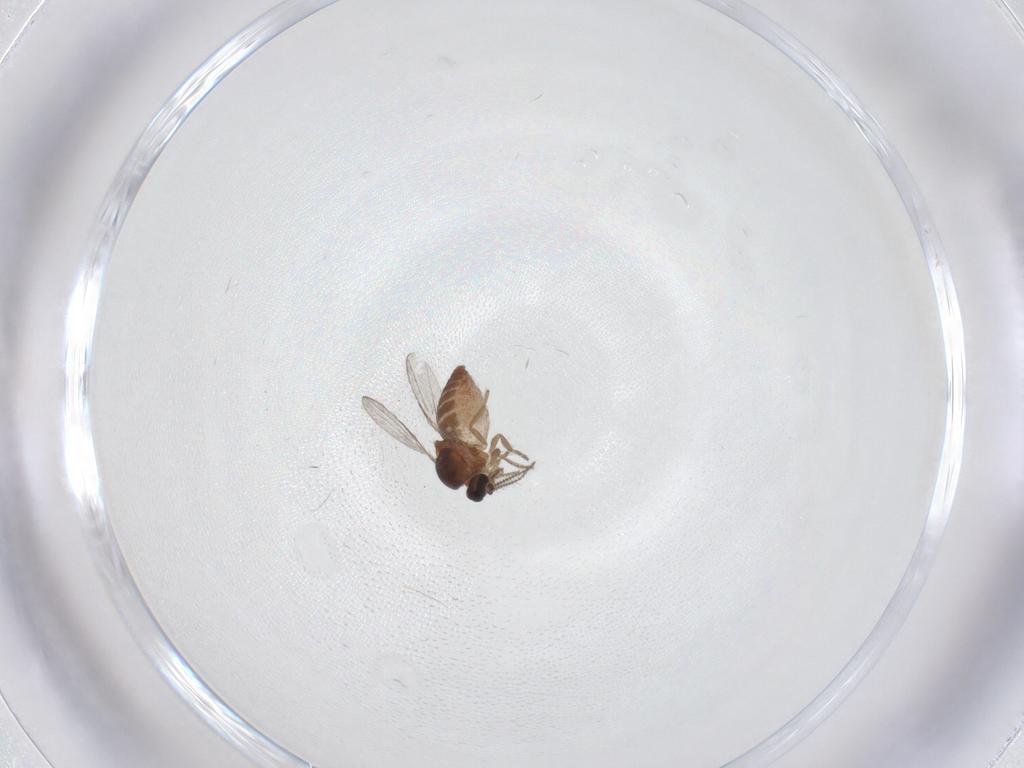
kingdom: Animalia
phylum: Arthropoda
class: Insecta
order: Diptera
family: Ceratopogonidae
